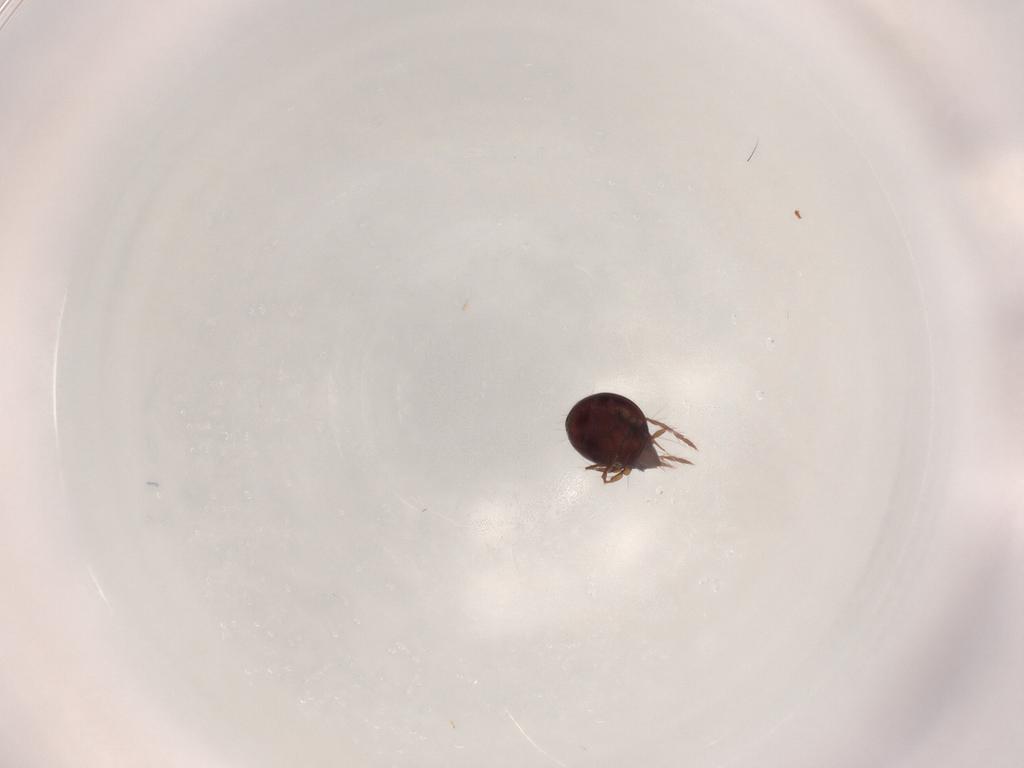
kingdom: Animalia
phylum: Arthropoda
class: Arachnida
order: Sarcoptiformes
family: Ceratoppiidae
